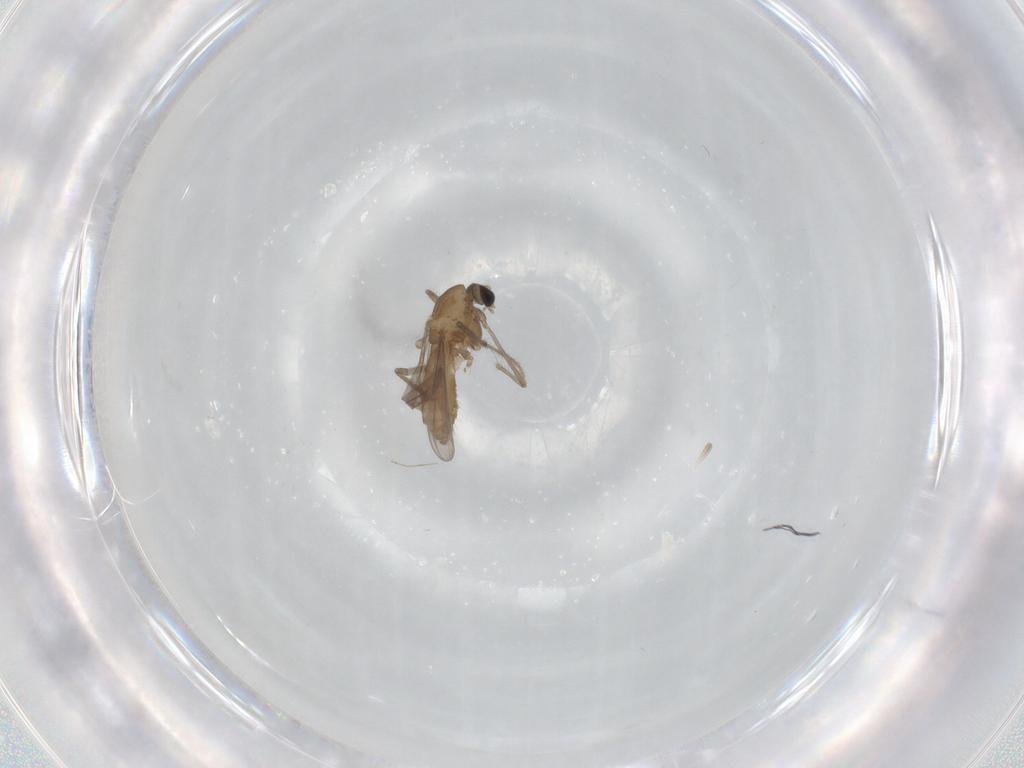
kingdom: Animalia
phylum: Arthropoda
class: Insecta
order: Diptera
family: Chironomidae
